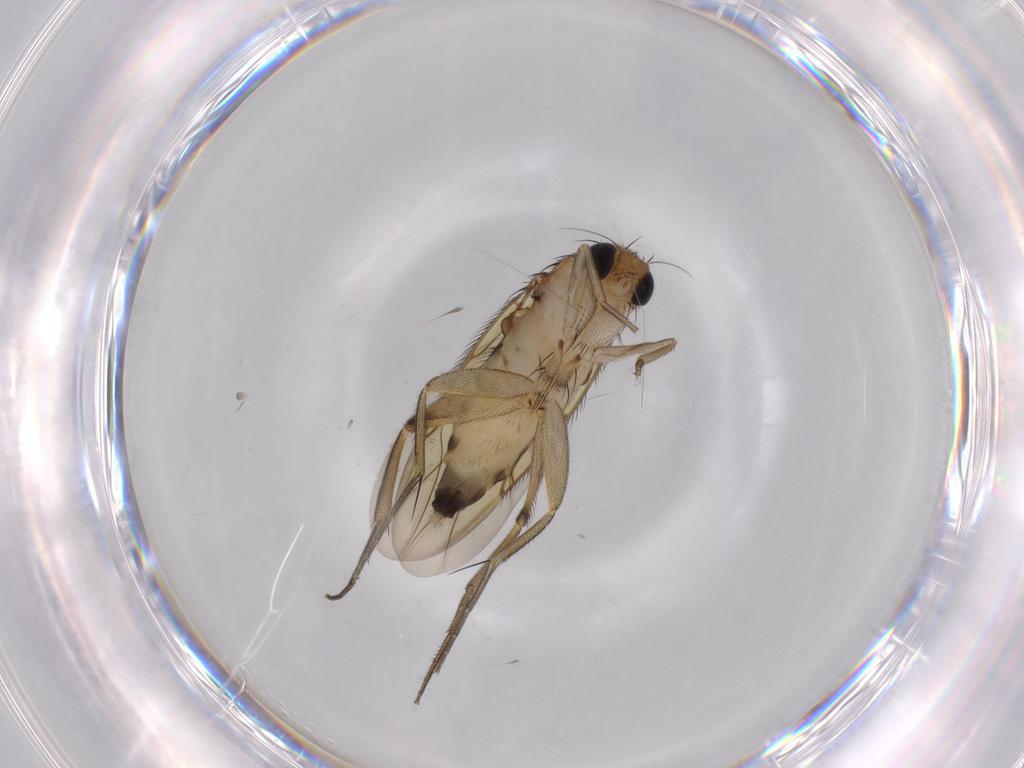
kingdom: Animalia
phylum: Arthropoda
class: Insecta
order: Diptera
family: Phoridae
